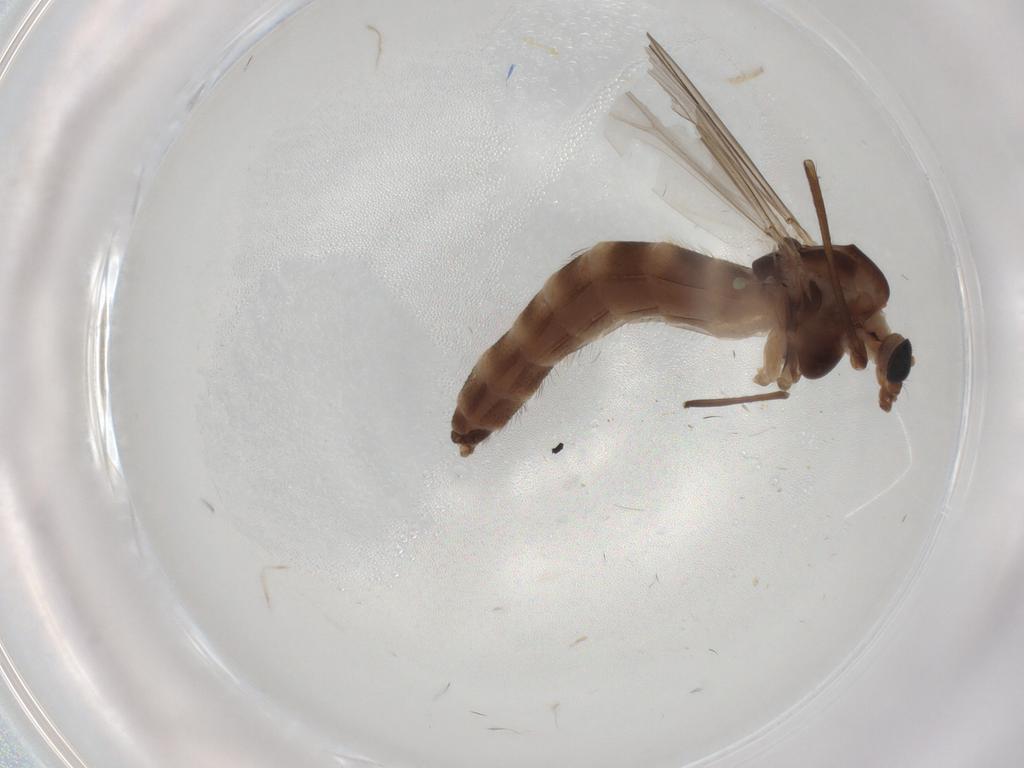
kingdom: Animalia
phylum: Arthropoda
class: Insecta
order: Diptera
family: Chironomidae
